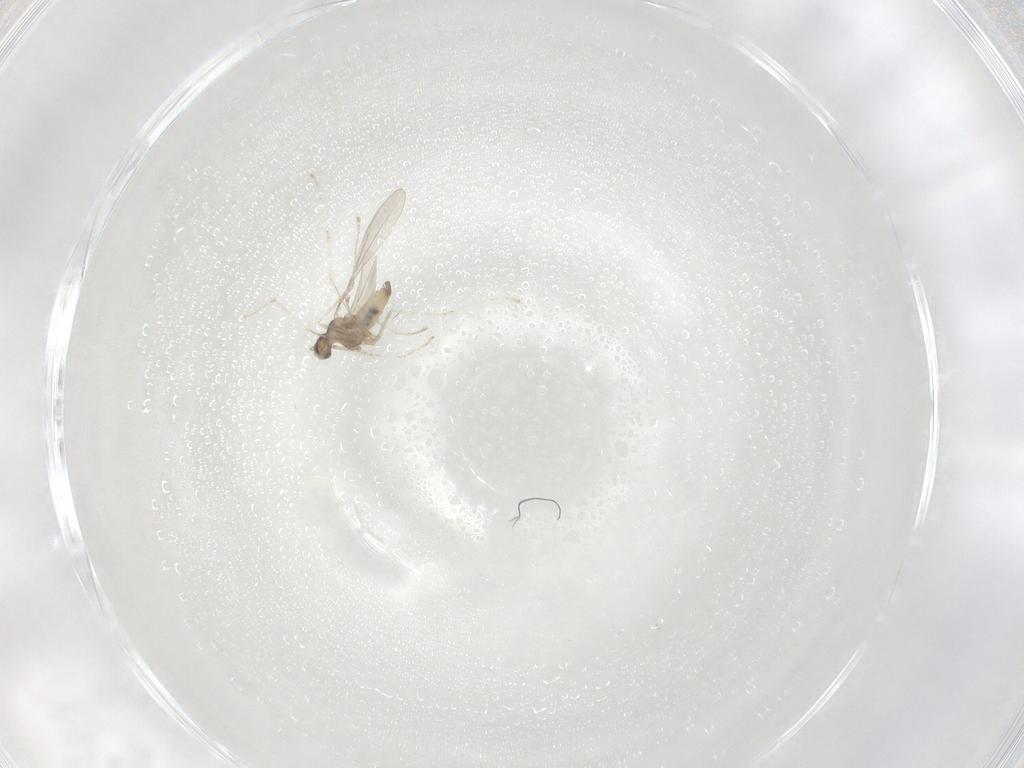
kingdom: Animalia
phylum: Arthropoda
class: Insecta
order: Diptera
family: Cecidomyiidae
